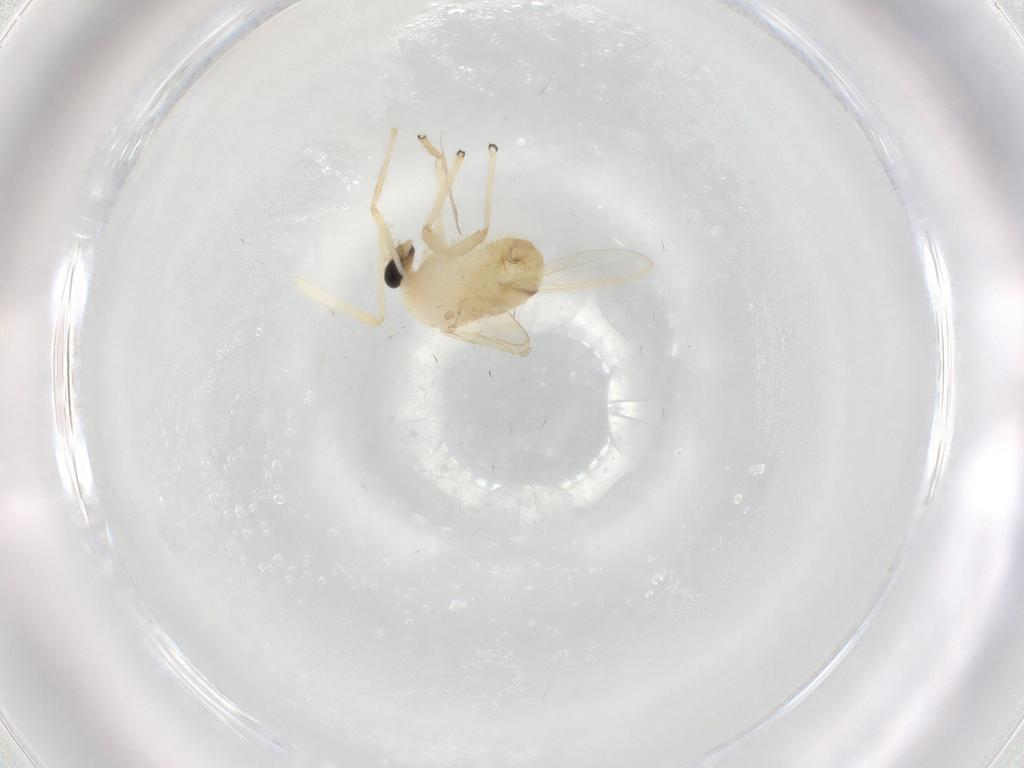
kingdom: Animalia
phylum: Arthropoda
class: Insecta
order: Diptera
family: Chironomidae
